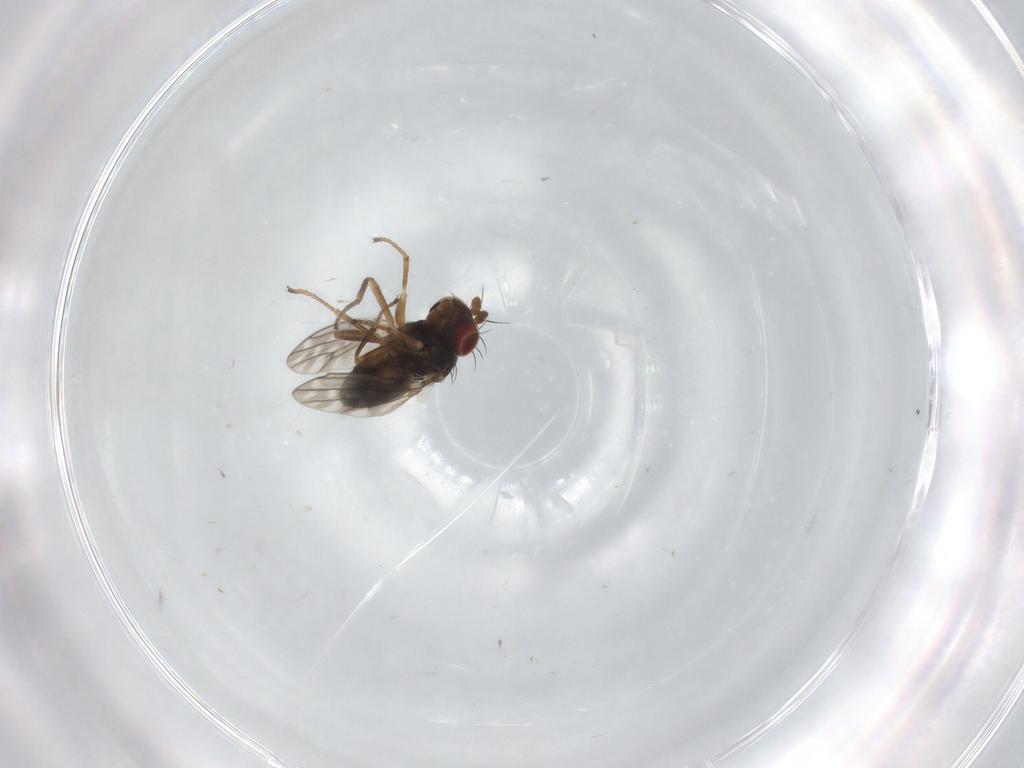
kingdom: Animalia
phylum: Arthropoda
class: Insecta
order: Diptera
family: Ephydridae
